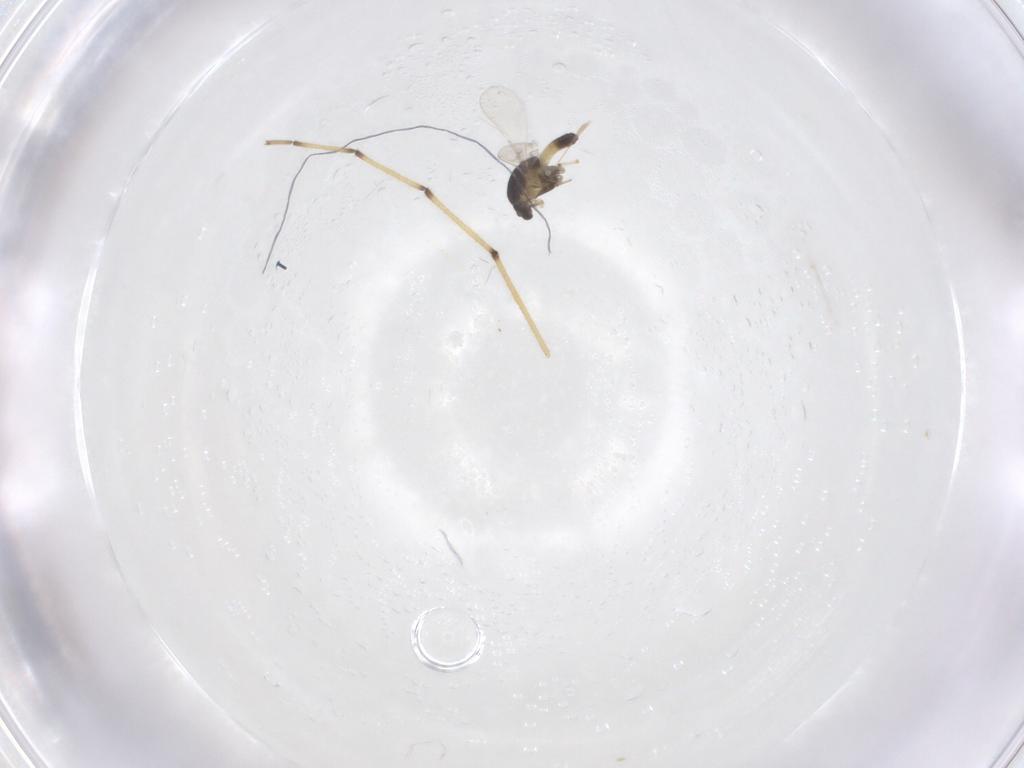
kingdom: Animalia
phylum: Arthropoda
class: Insecta
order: Diptera
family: Chironomidae
